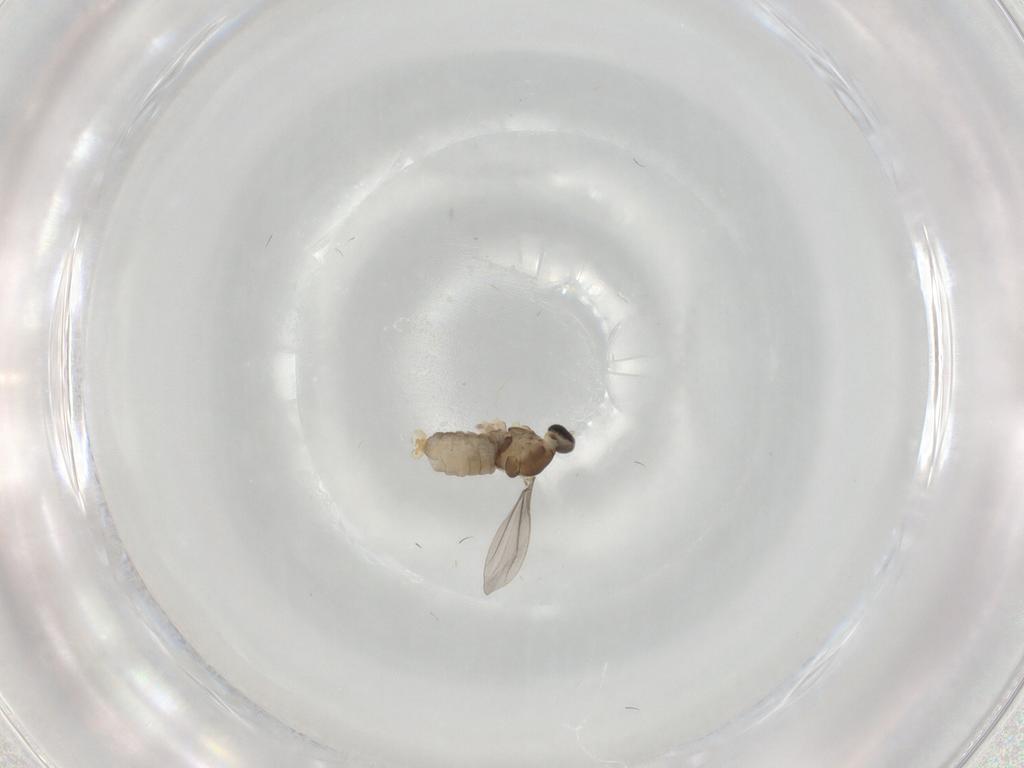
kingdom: Animalia
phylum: Arthropoda
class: Insecta
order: Diptera
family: Cecidomyiidae
